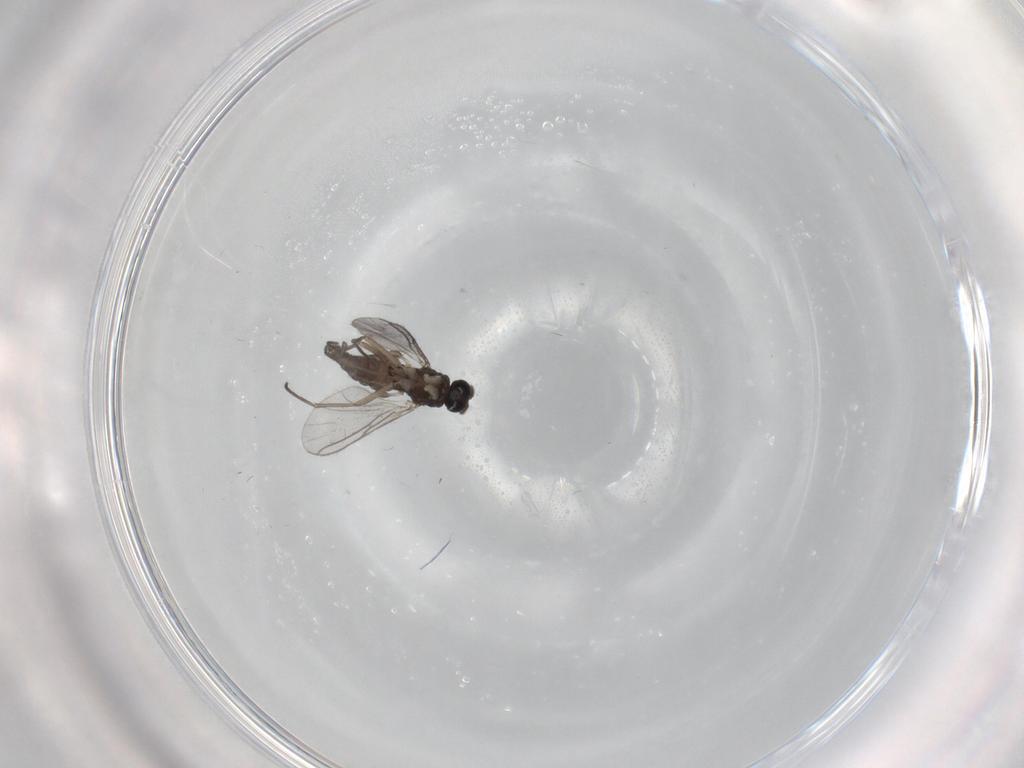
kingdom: Animalia
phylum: Arthropoda
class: Insecta
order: Diptera
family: Sciaridae
